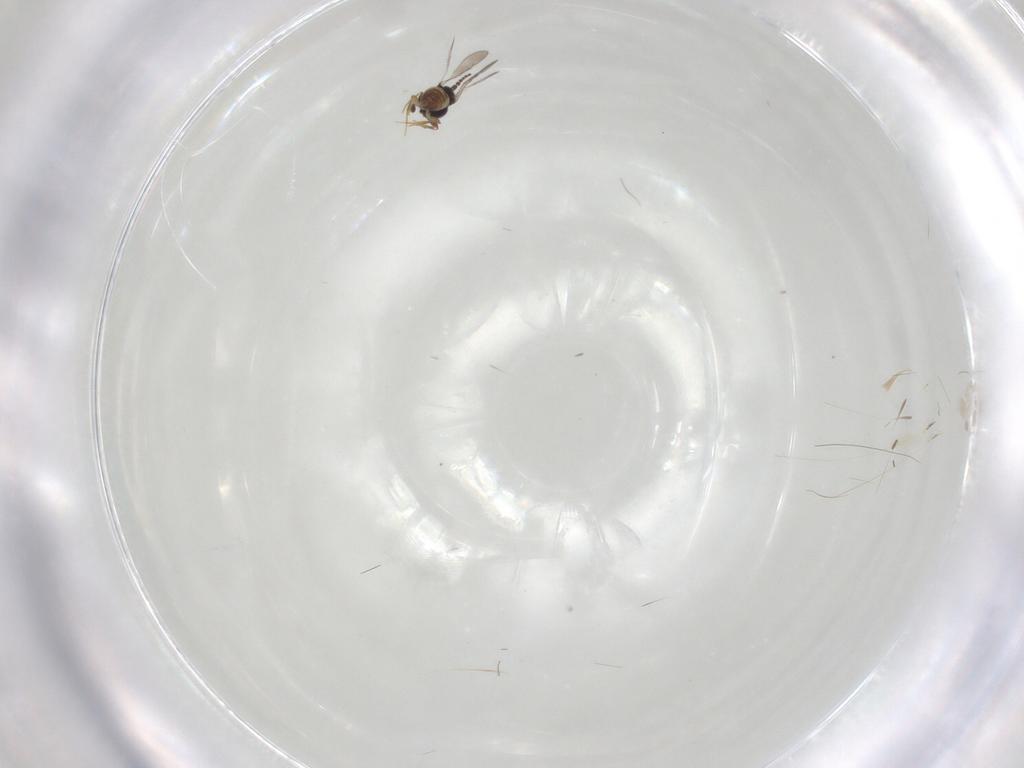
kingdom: Animalia
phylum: Arthropoda
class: Insecta
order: Hymenoptera
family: Apidae
